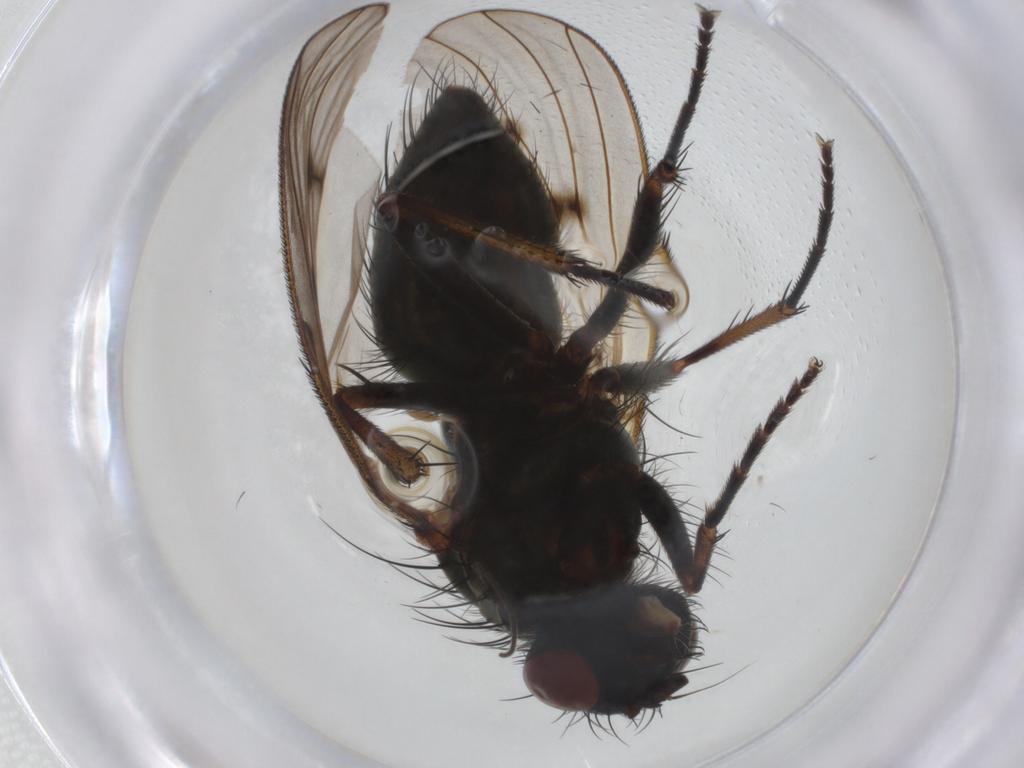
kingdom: Animalia
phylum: Arthropoda
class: Insecta
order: Diptera
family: Muscidae
